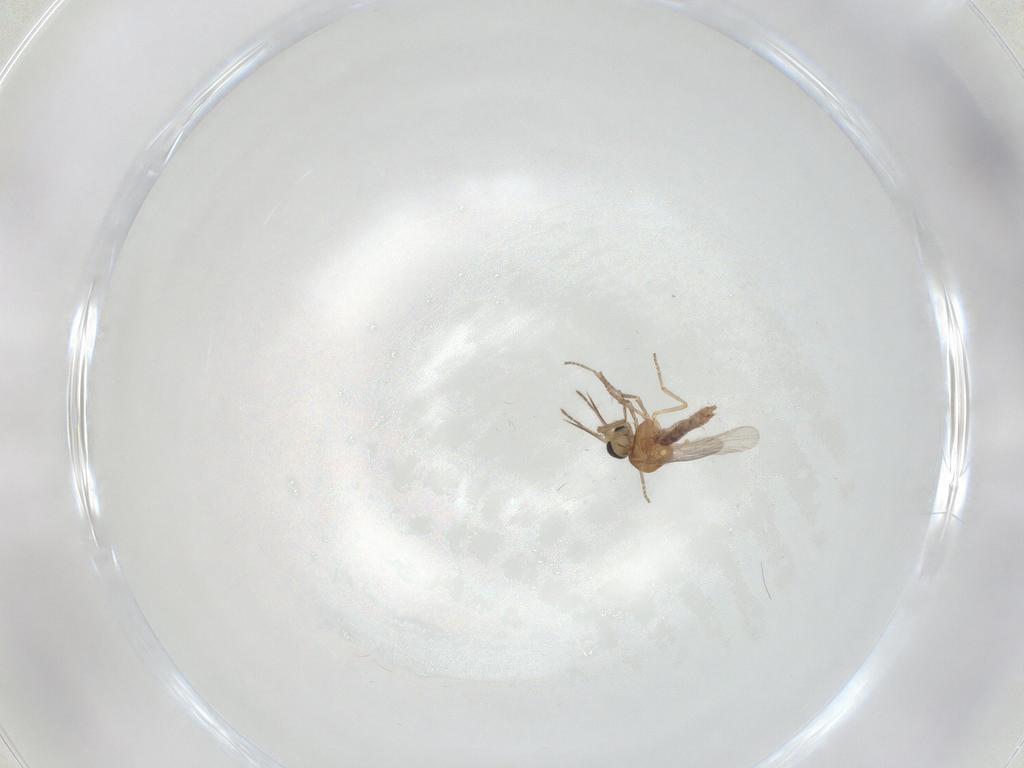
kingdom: Animalia
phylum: Arthropoda
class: Insecta
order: Diptera
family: Ceratopogonidae
